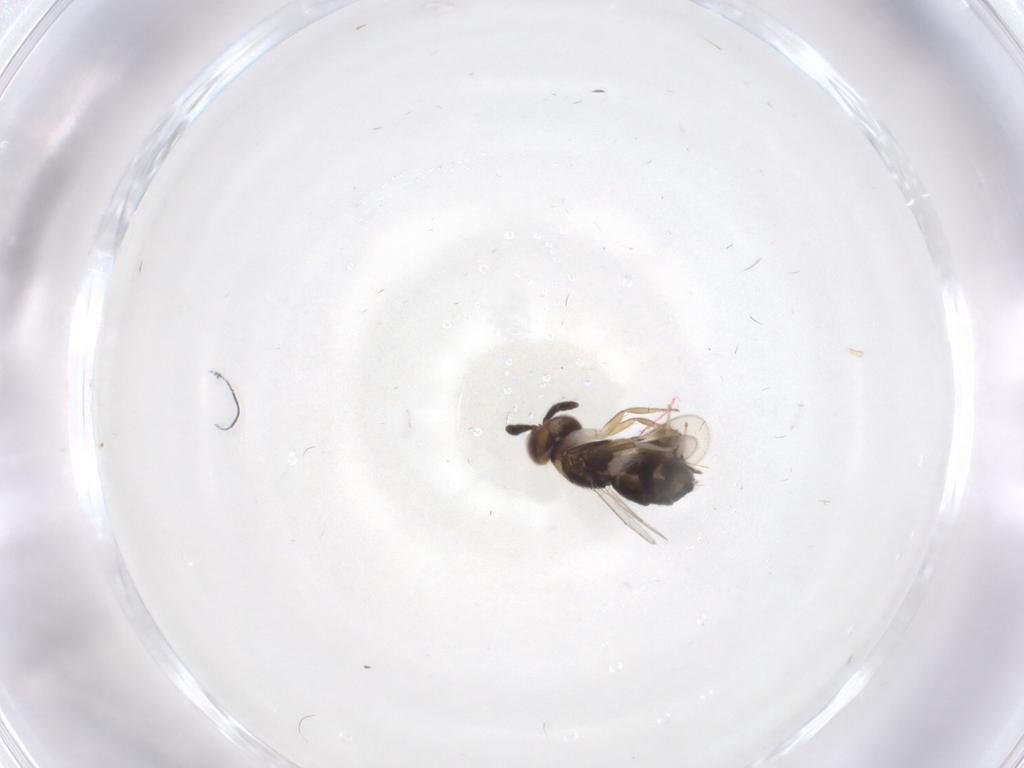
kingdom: Animalia
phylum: Arthropoda
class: Insecta
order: Hymenoptera
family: Aphelinidae
